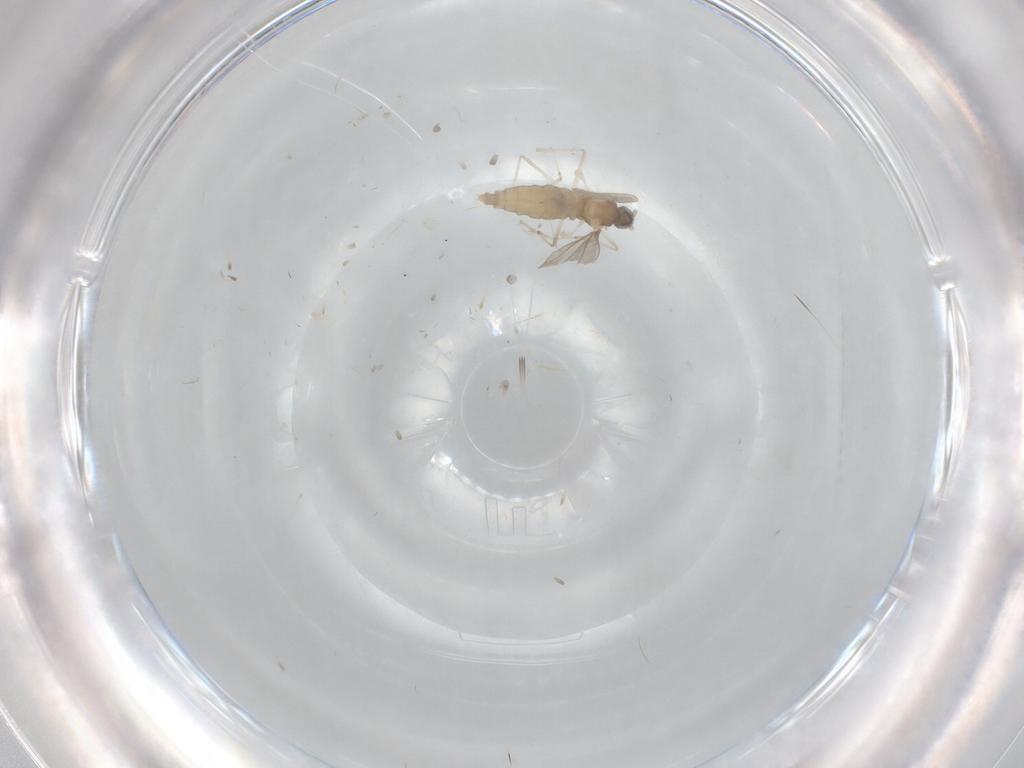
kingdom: Animalia
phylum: Arthropoda
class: Insecta
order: Diptera
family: Cecidomyiidae
